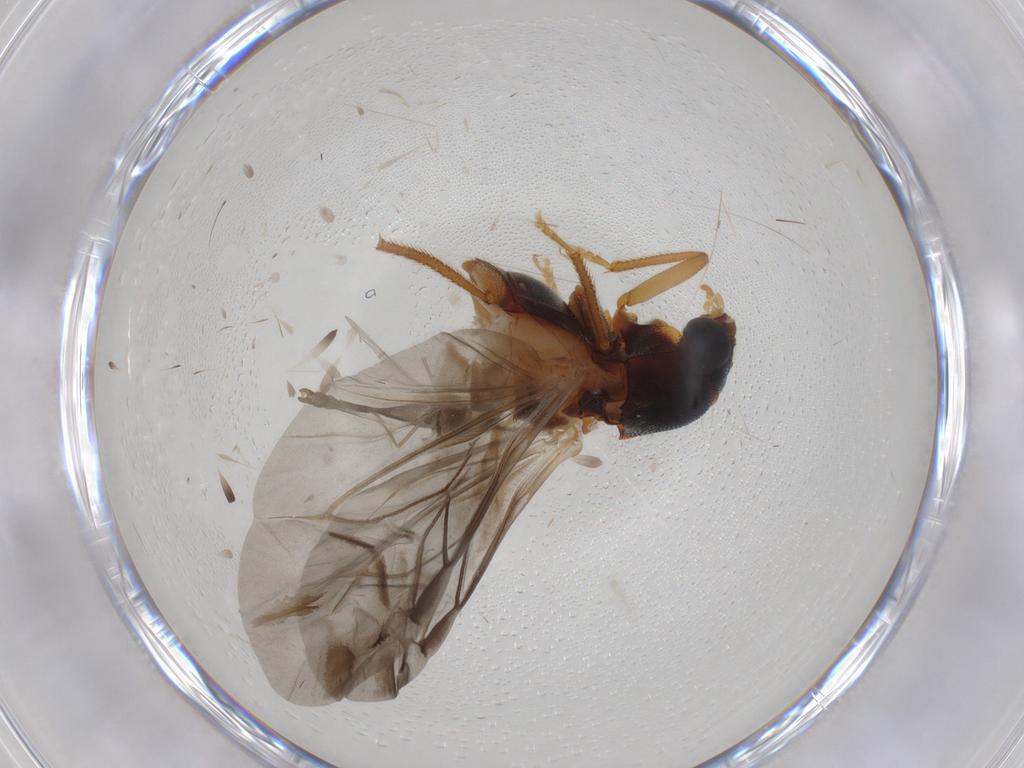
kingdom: Animalia
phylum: Arthropoda
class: Insecta
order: Coleoptera
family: Ptilodactylidae
